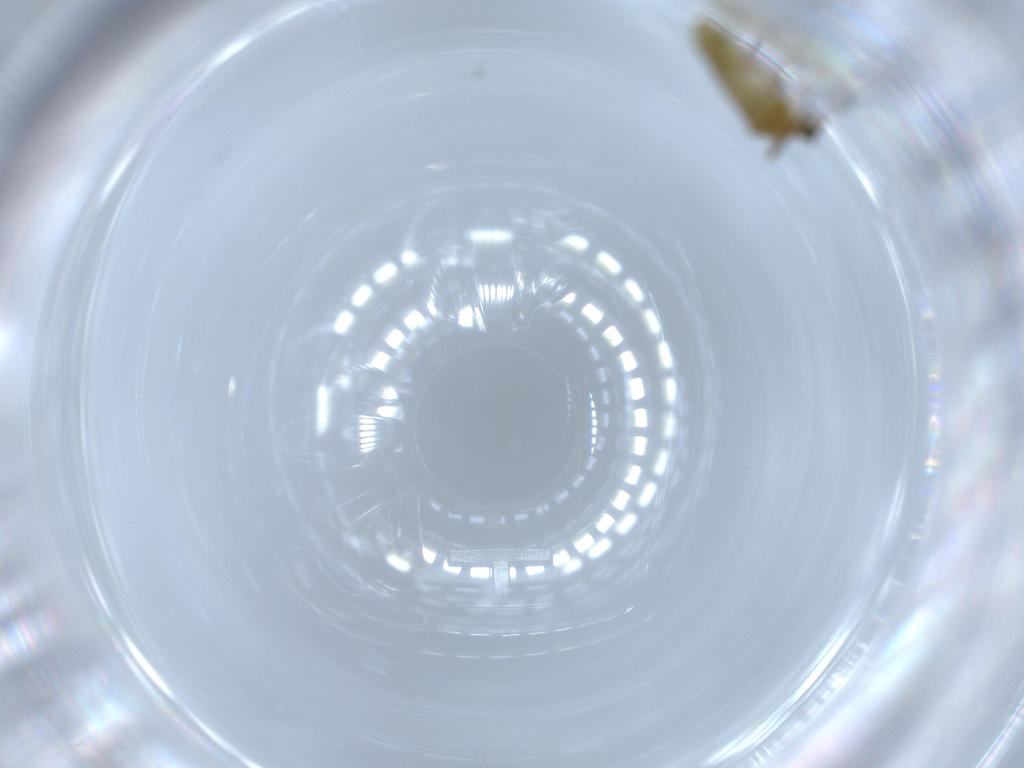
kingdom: Animalia
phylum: Arthropoda
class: Insecta
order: Diptera
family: Chironomidae
